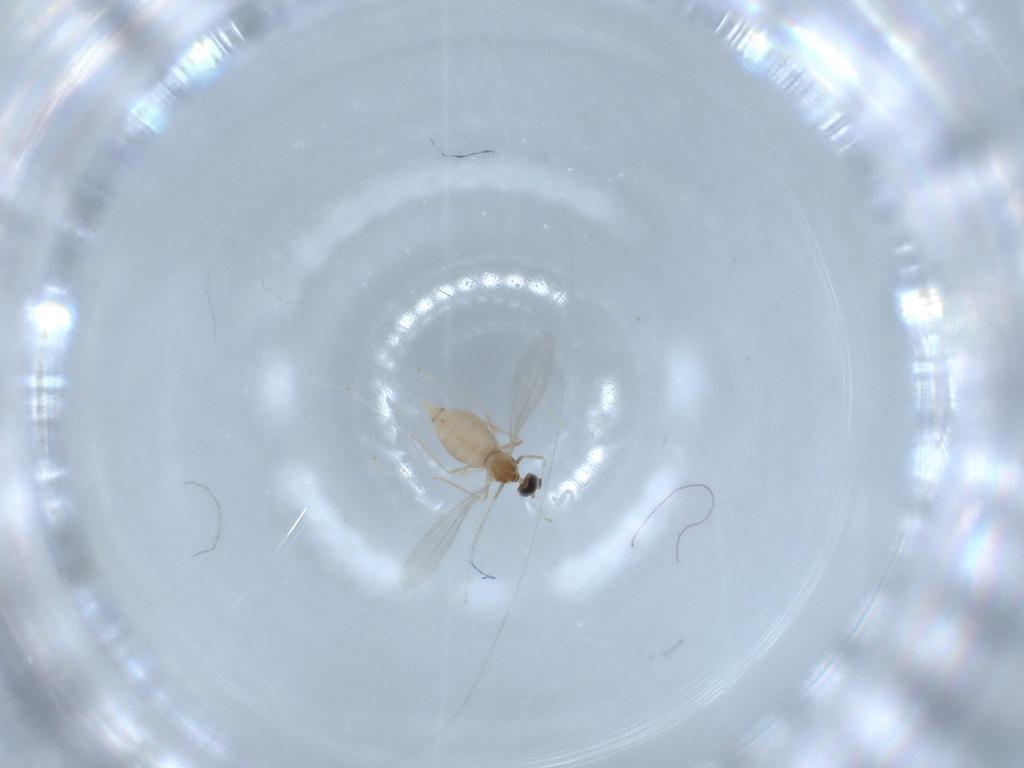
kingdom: Animalia
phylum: Arthropoda
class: Insecta
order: Diptera
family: Cecidomyiidae
